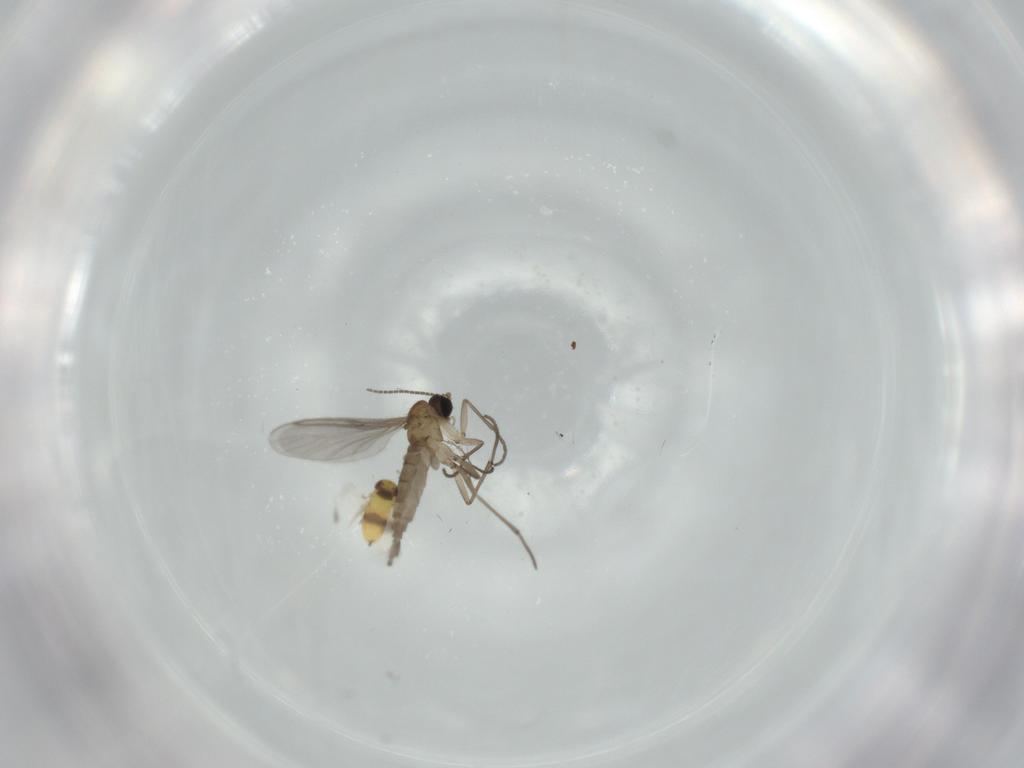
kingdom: Animalia
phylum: Arthropoda
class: Insecta
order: Diptera
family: Sciaridae
